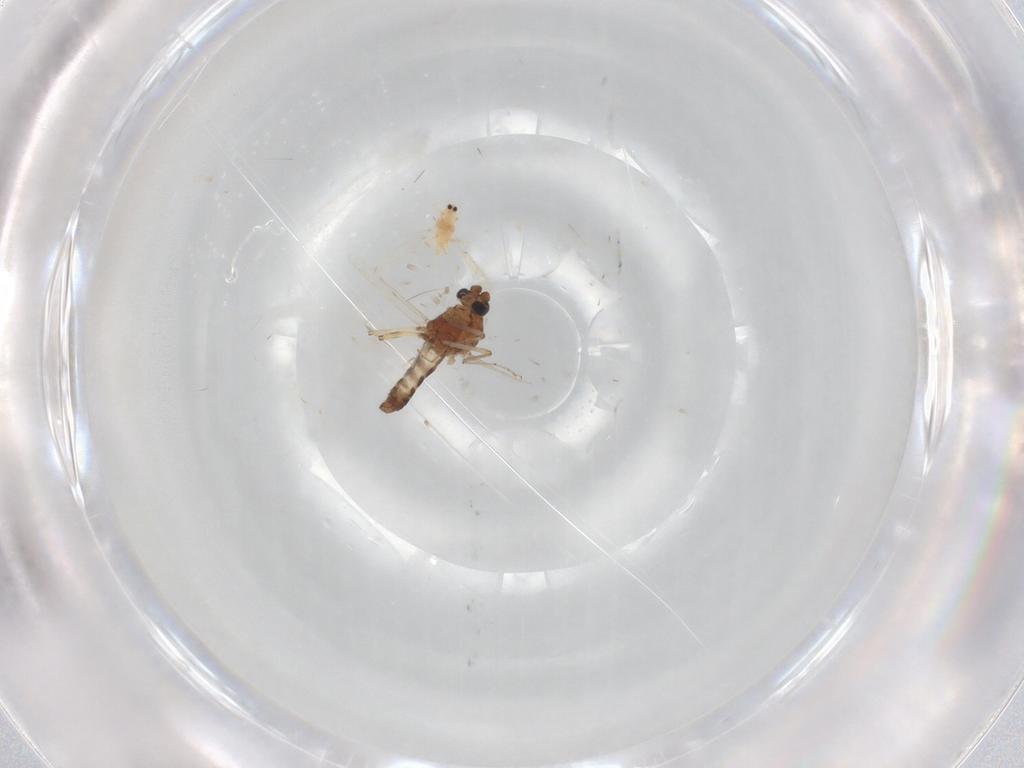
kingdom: Animalia
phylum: Arthropoda
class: Insecta
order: Diptera
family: Ceratopogonidae
